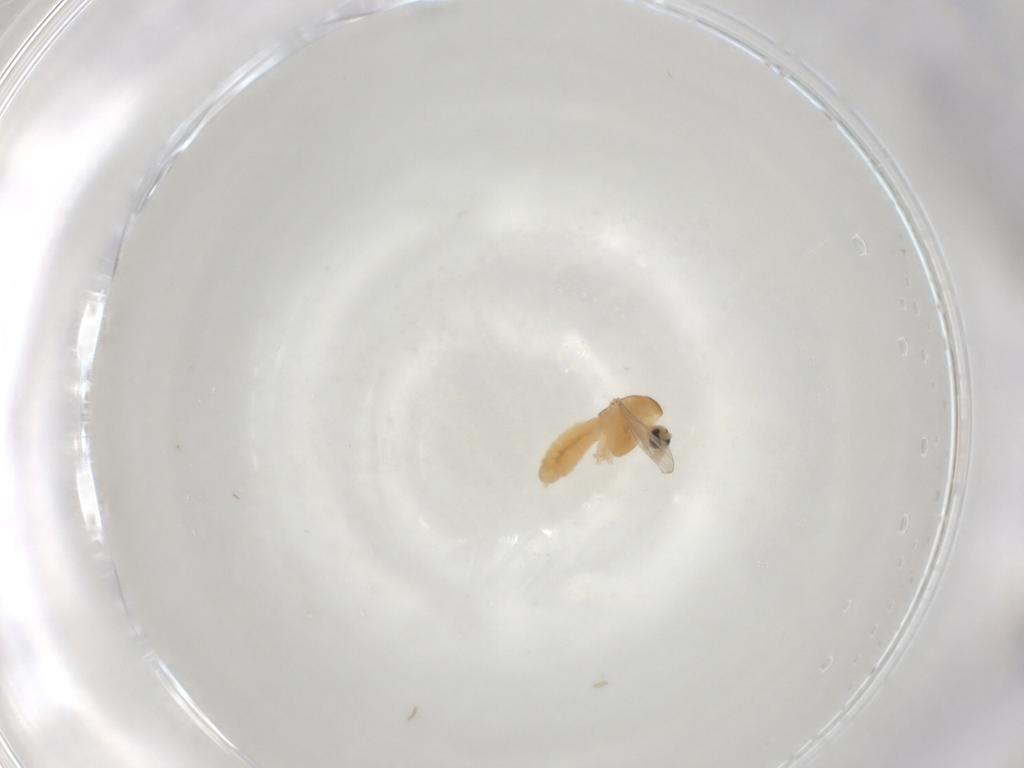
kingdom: Animalia
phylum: Arthropoda
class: Insecta
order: Diptera
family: Chironomidae
